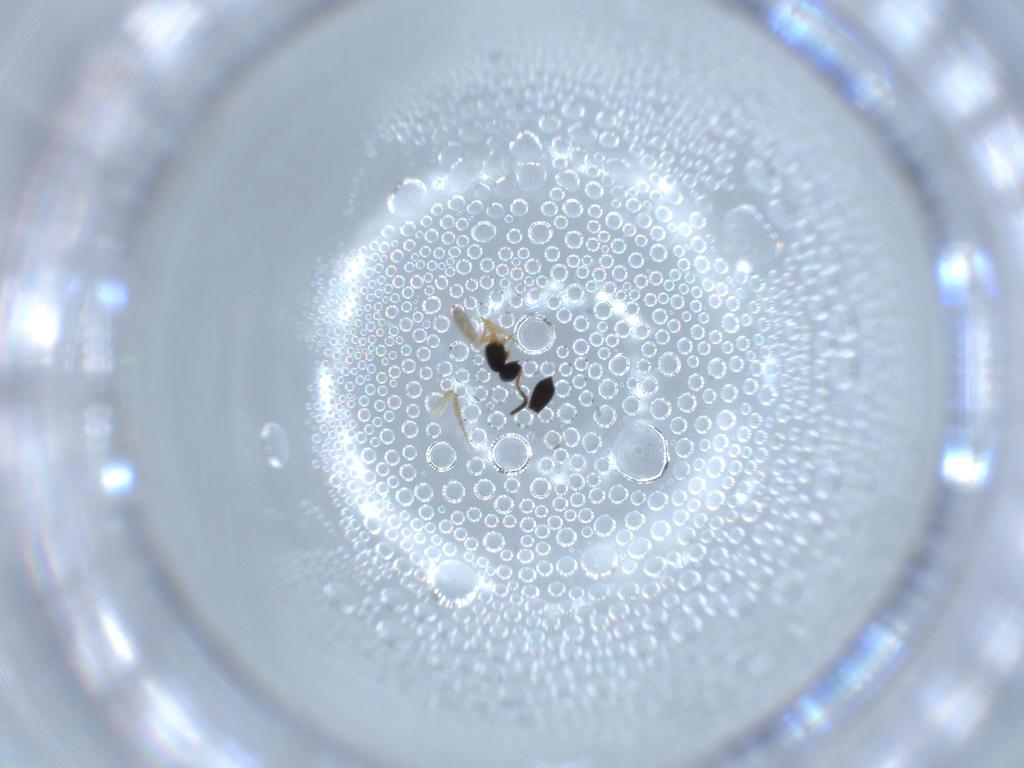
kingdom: Animalia
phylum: Arthropoda
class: Insecta
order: Hymenoptera
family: Scelionidae
